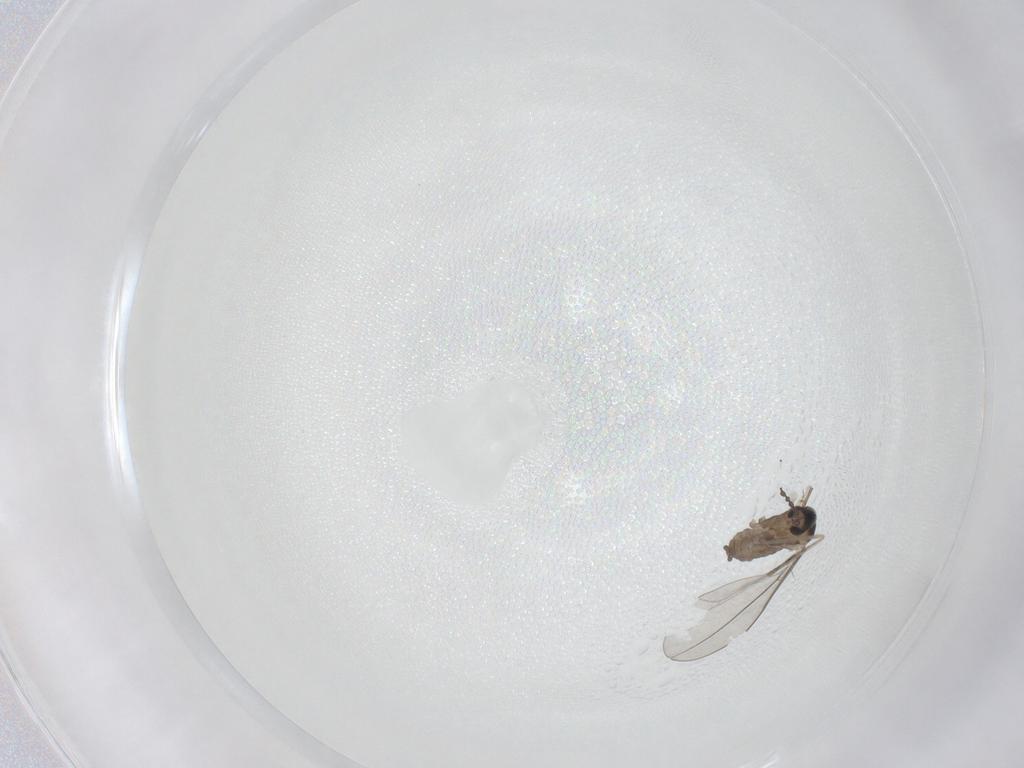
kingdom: Animalia
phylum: Arthropoda
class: Insecta
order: Diptera
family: Cecidomyiidae
